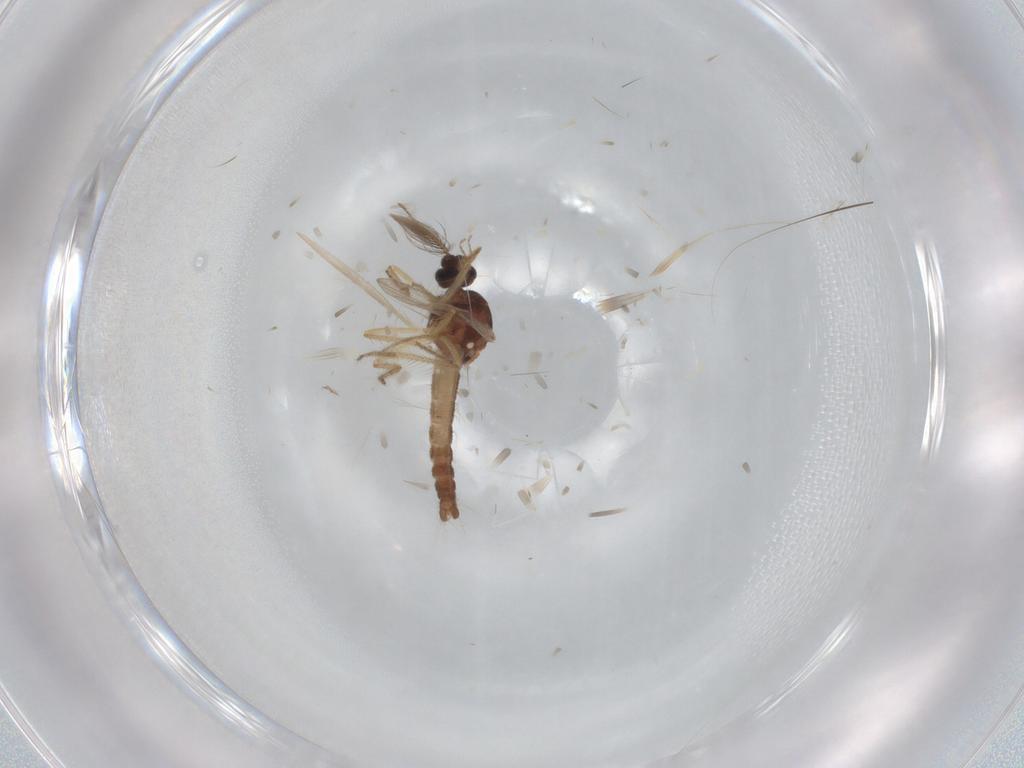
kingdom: Animalia
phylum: Arthropoda
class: Insecta
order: Diptera
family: Ceratopogonidae
